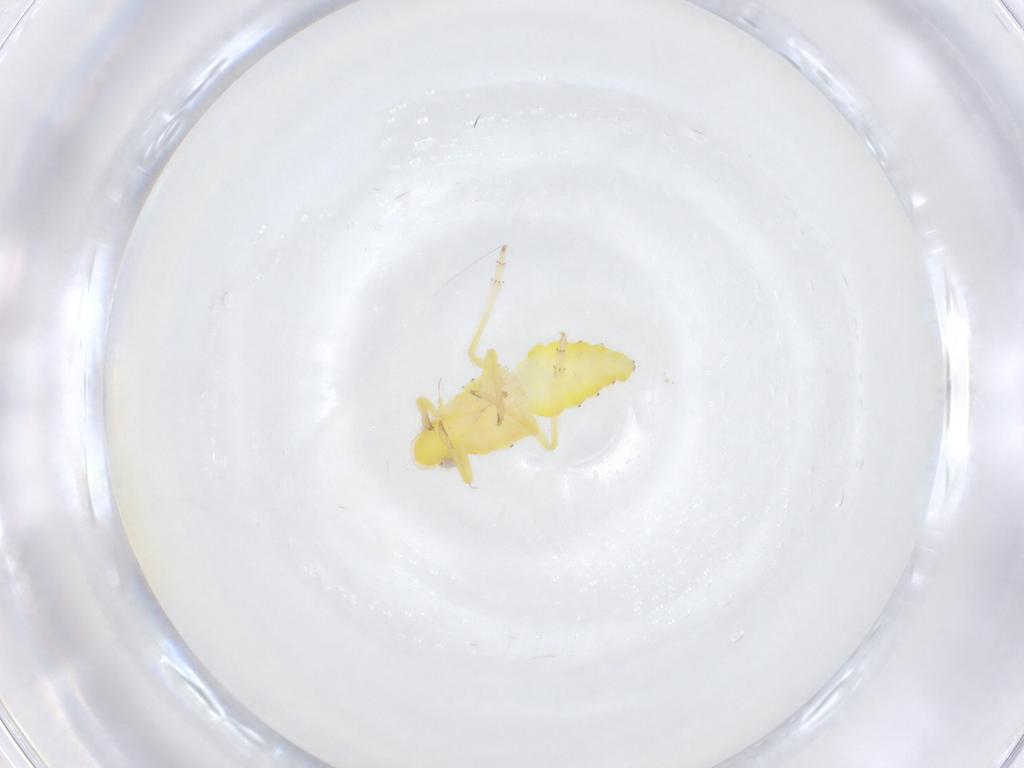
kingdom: Animalia
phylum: Arthropoda
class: Insecta
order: Hemiptera
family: Tropiduchidae
